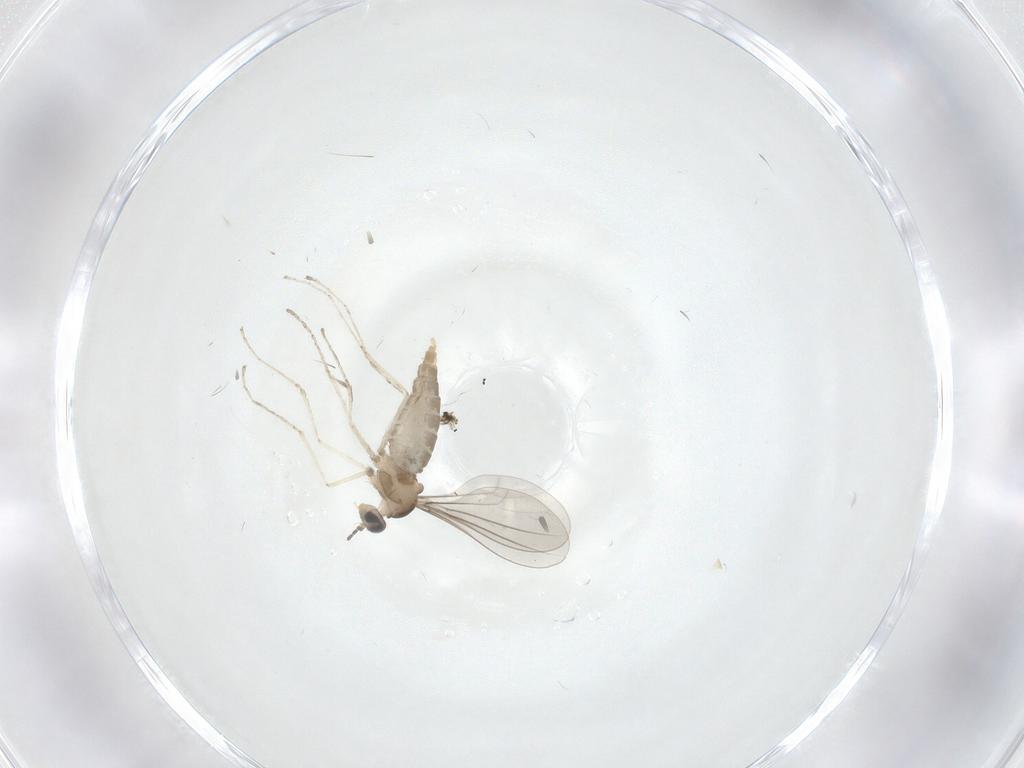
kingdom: Animalia
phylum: Arthropoda
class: Insecta
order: Diptera
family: Cecidomyiidae
